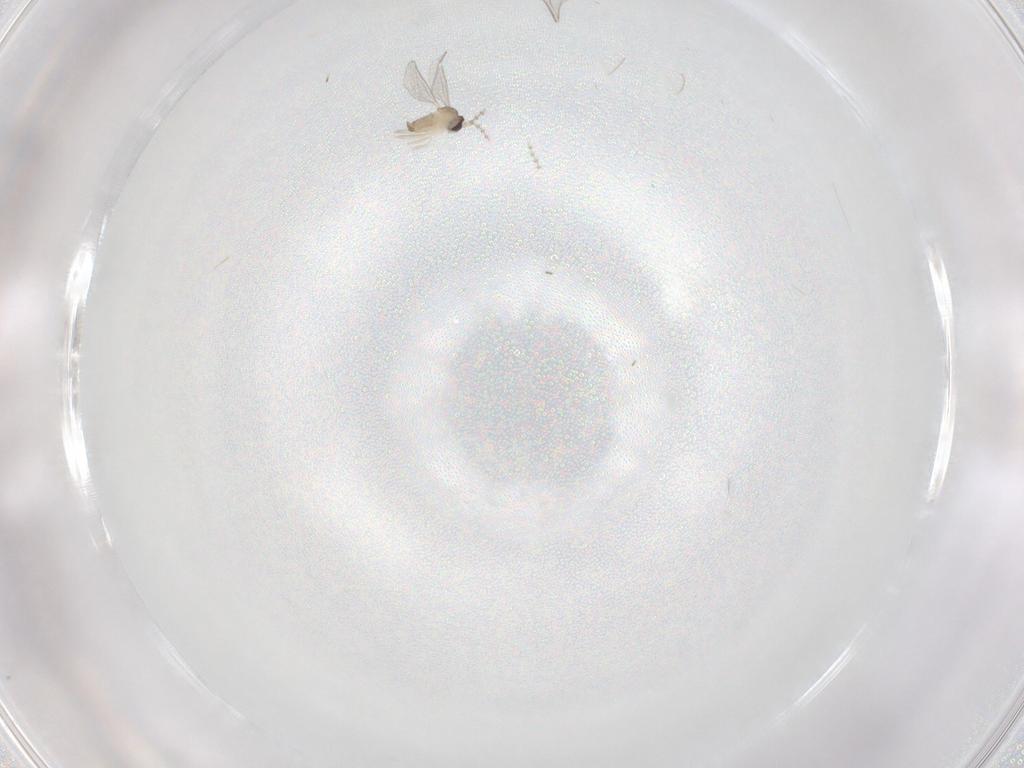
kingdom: Animalia
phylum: Arthropoda
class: Insecta
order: Diptera
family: Cecidomyiidae
